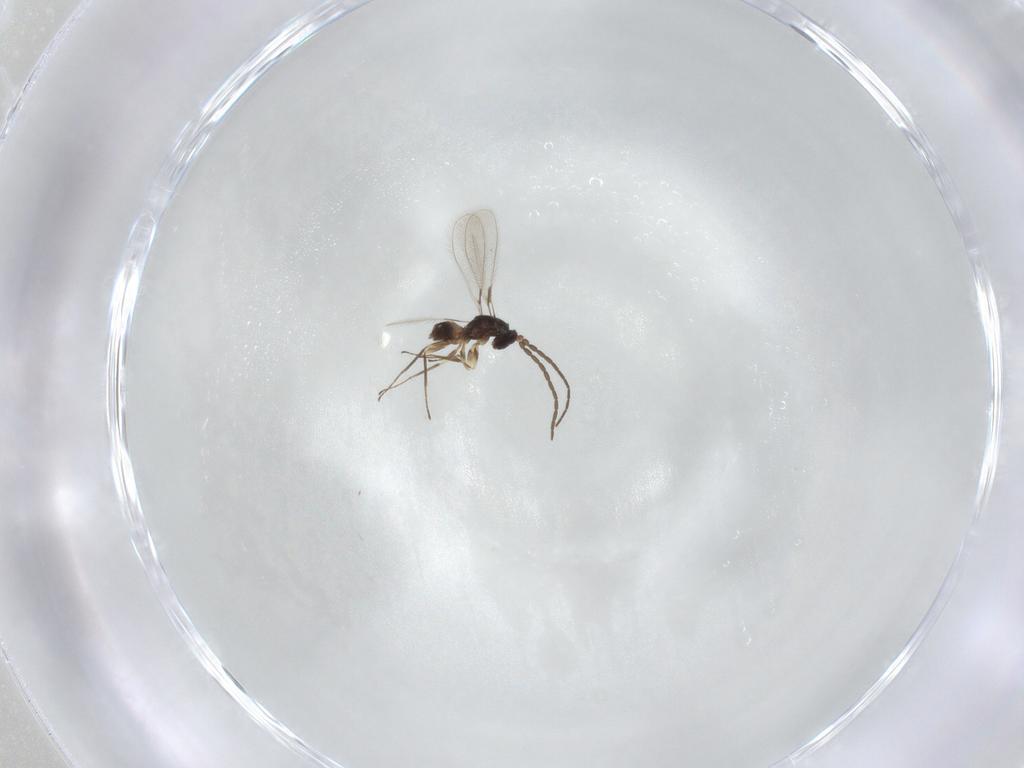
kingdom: Animalia
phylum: Arthropoda
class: Insecta
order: Hymenoptera
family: Mymaridae
